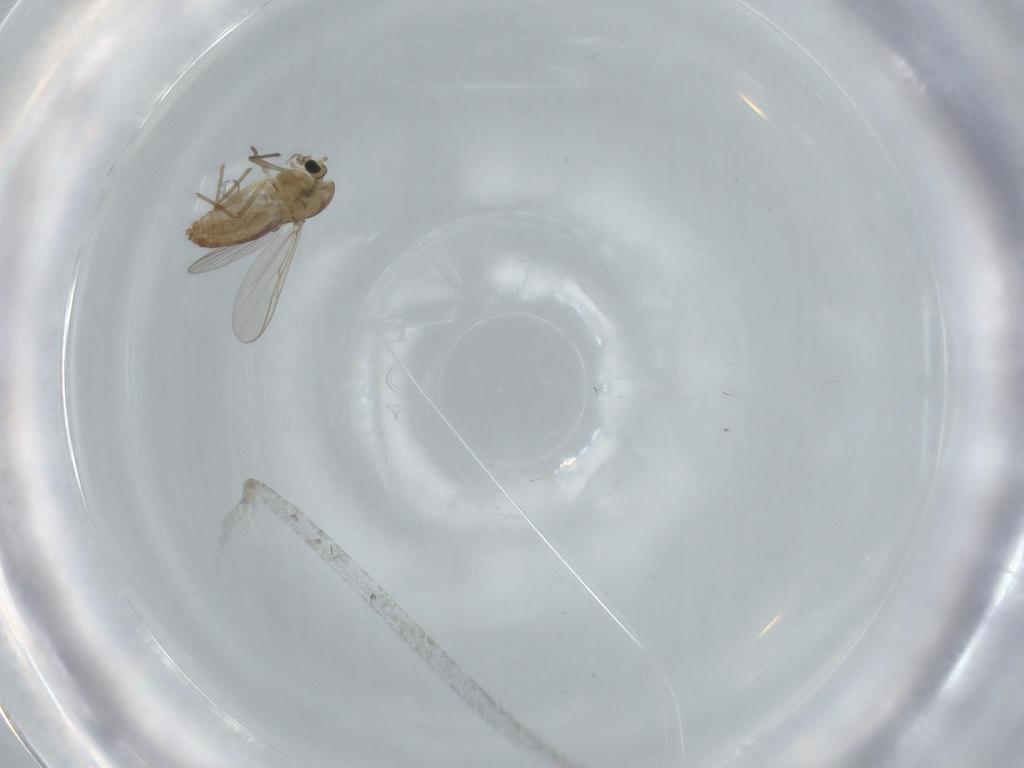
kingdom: Animalia
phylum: Arthropoda
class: Insecta
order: Diptera
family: Chironomidae
